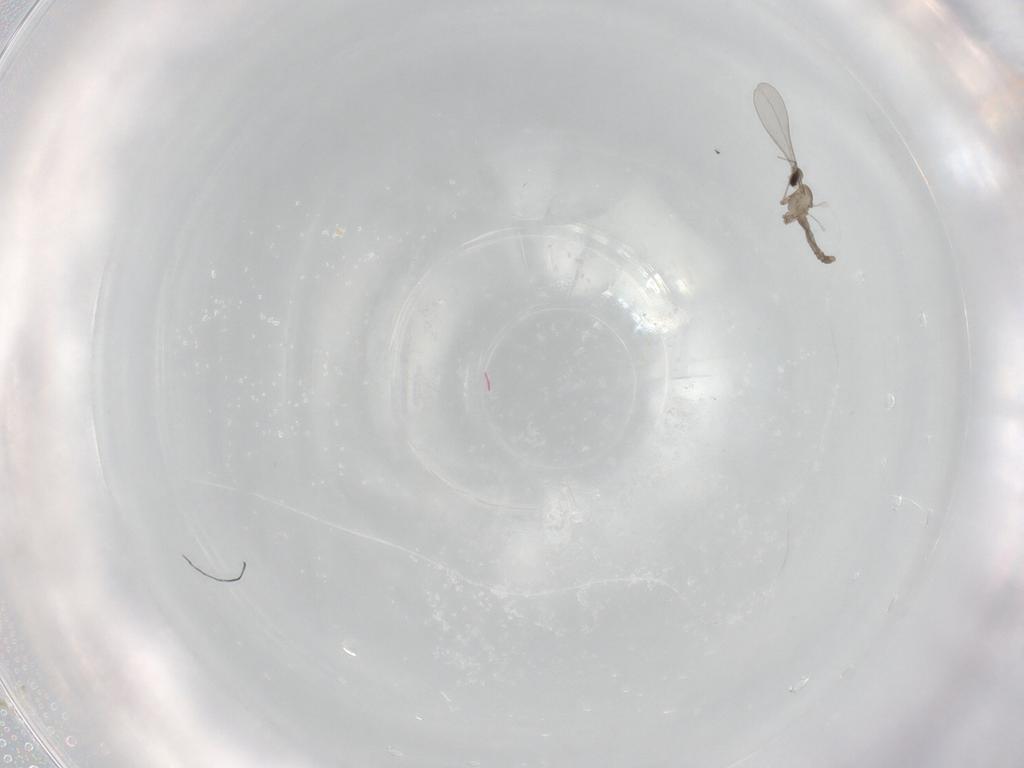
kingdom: Animalia
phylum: Arthropoda
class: Insecta
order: Diptera
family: Cecidomyiidae
